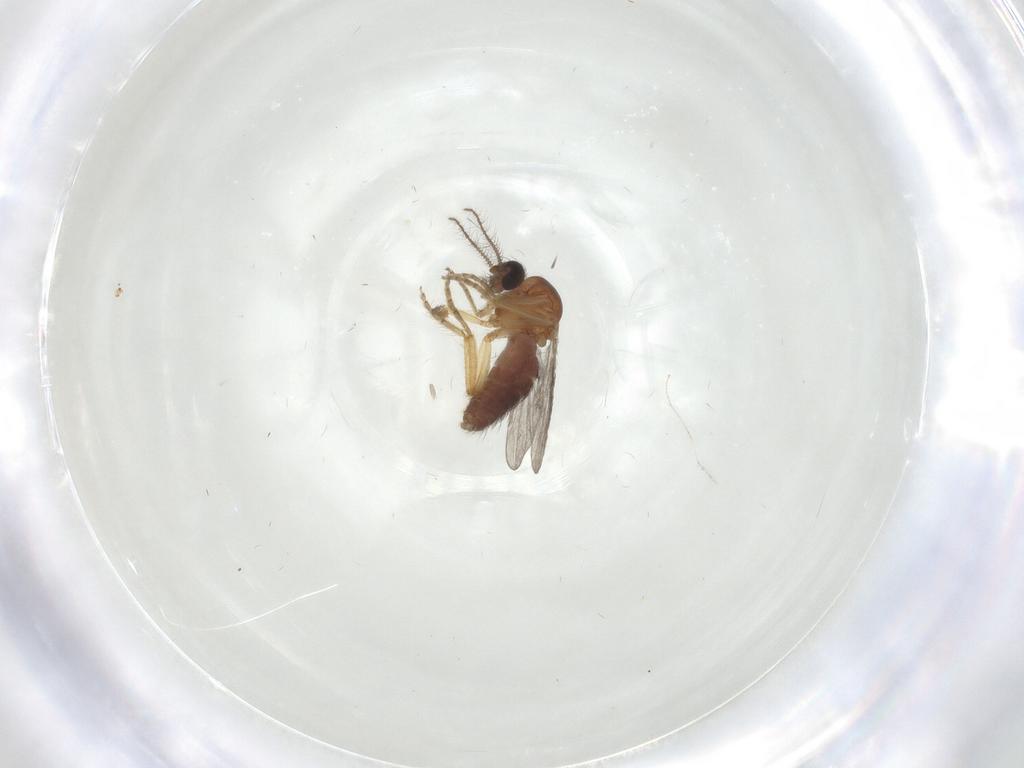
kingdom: Animalia
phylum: Arthropoda
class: Insecta
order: Diptera
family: Ceratopogonidae
